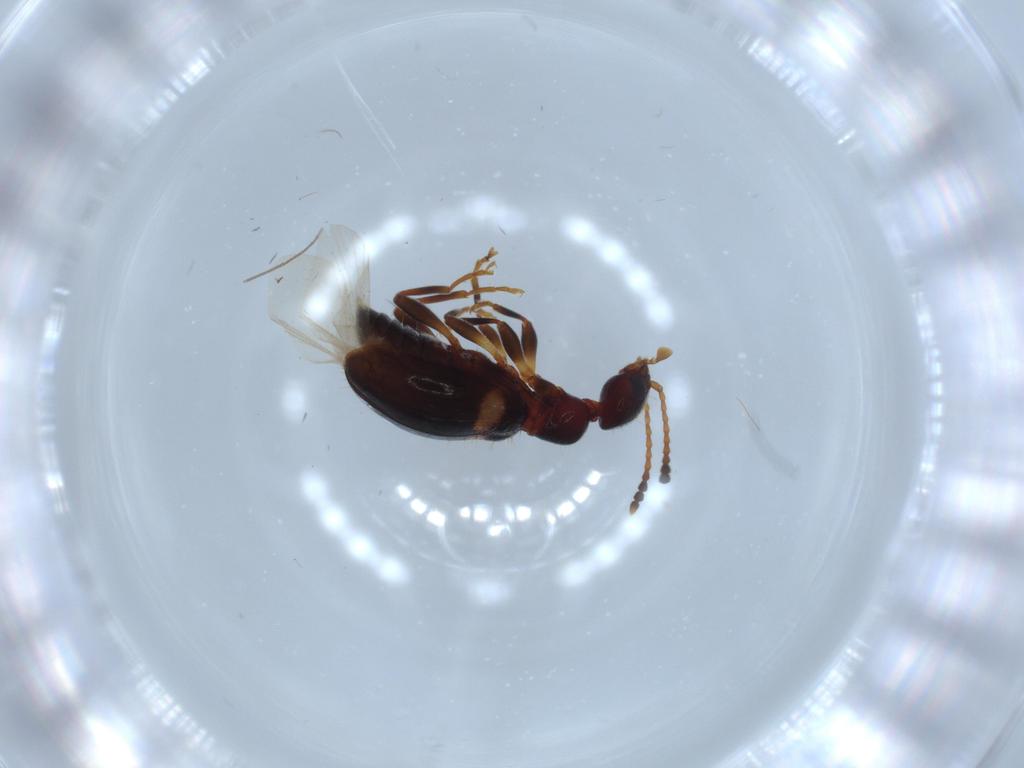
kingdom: Animalia
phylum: Arthropoda
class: Insecta
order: Coleoptera
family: Anthicidae
